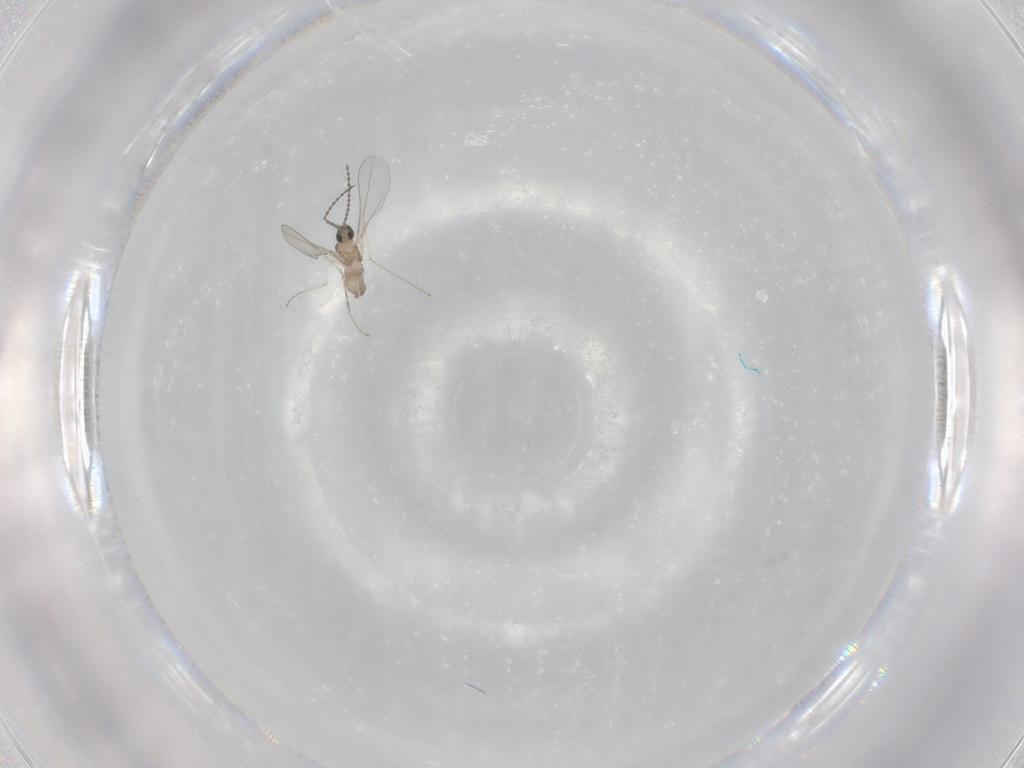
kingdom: Animalia
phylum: Arthropoda
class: Insecta
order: Diptera
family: Cecidomyiidae
